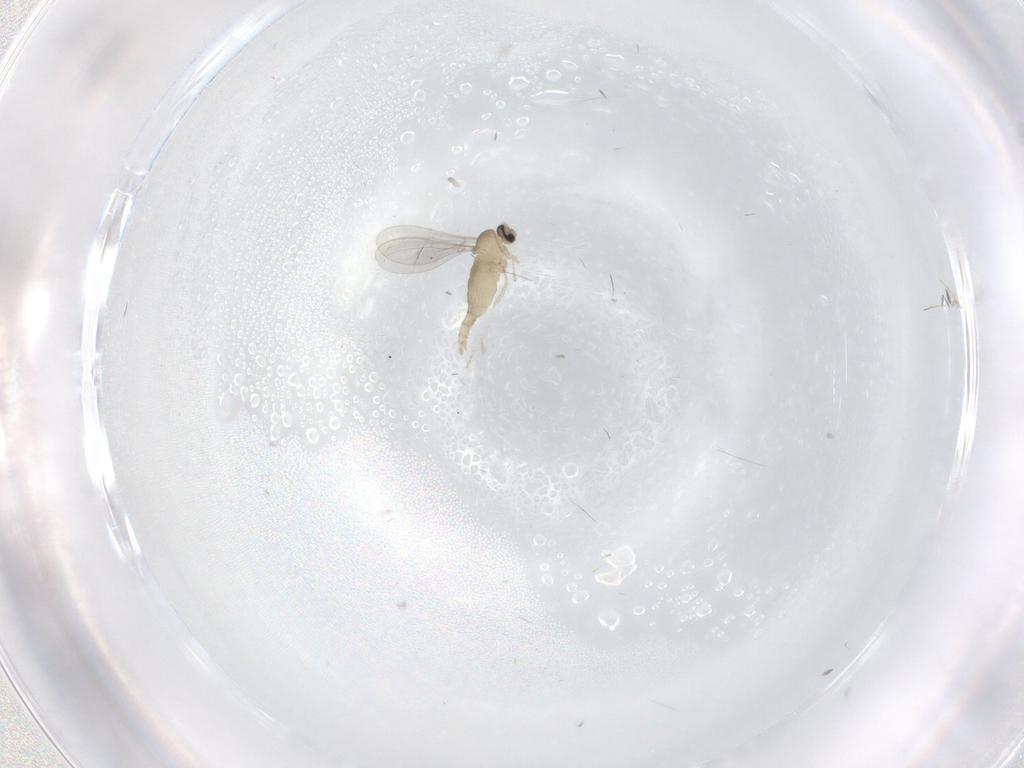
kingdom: Animalia
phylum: Arthropoda
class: Insecta
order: Diptera
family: Cecidomyiidae
